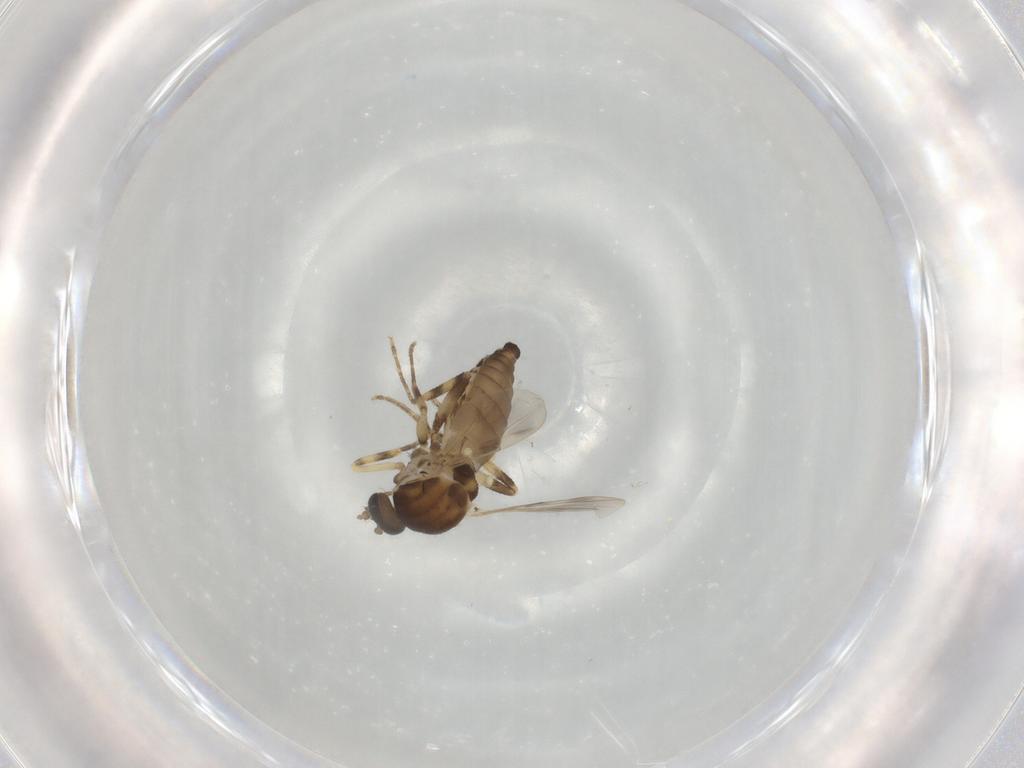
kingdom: Animalia
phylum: Arthropoda
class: Insecta
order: Diptera
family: Ceratopogonidae
